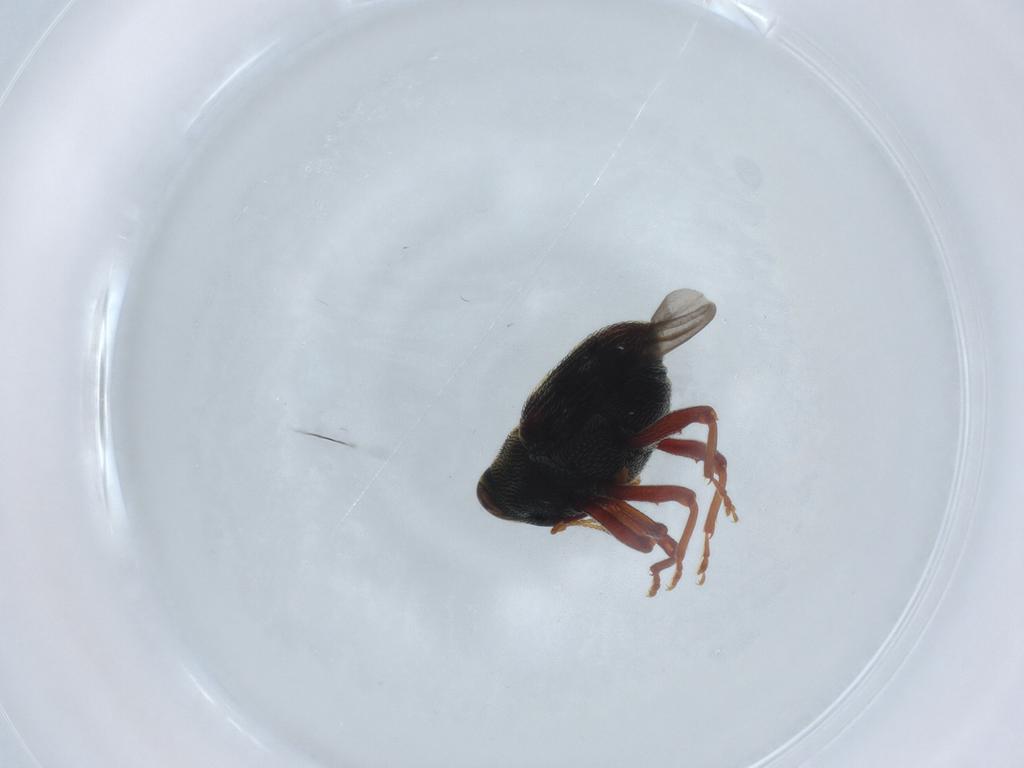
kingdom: Animalia
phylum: Arthropoda
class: Insecta
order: Coleoptera
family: Curculionidae
